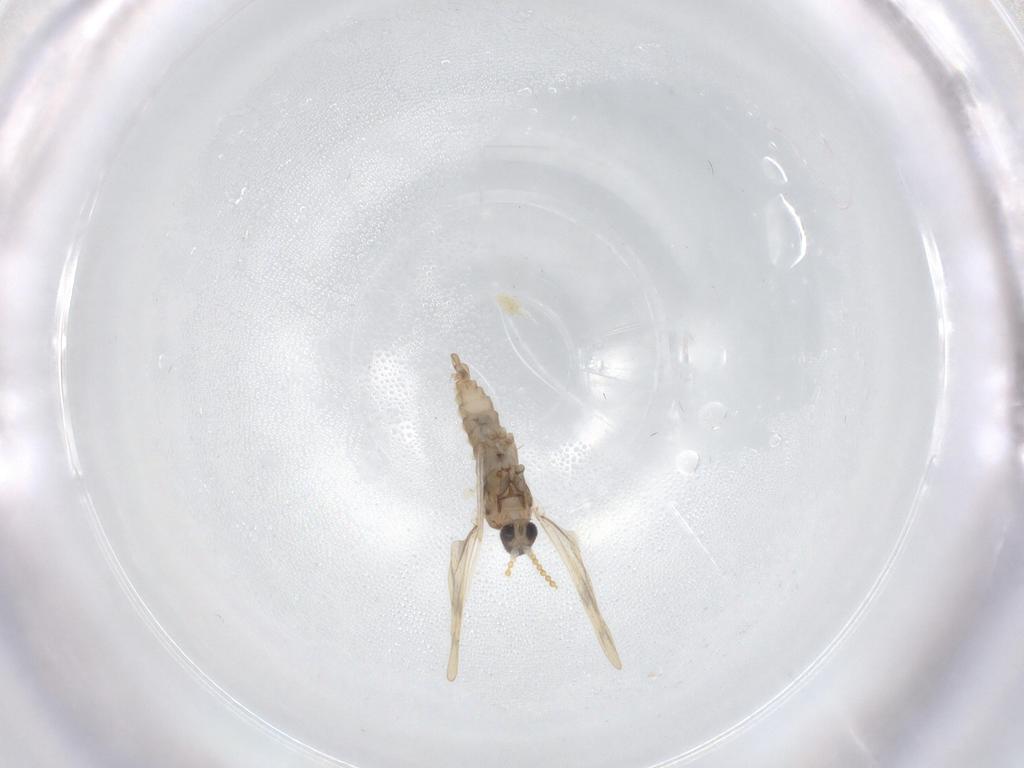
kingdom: Animalia
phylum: Arthropoda
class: Insecta
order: Diptera
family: Cecidomyiidae
